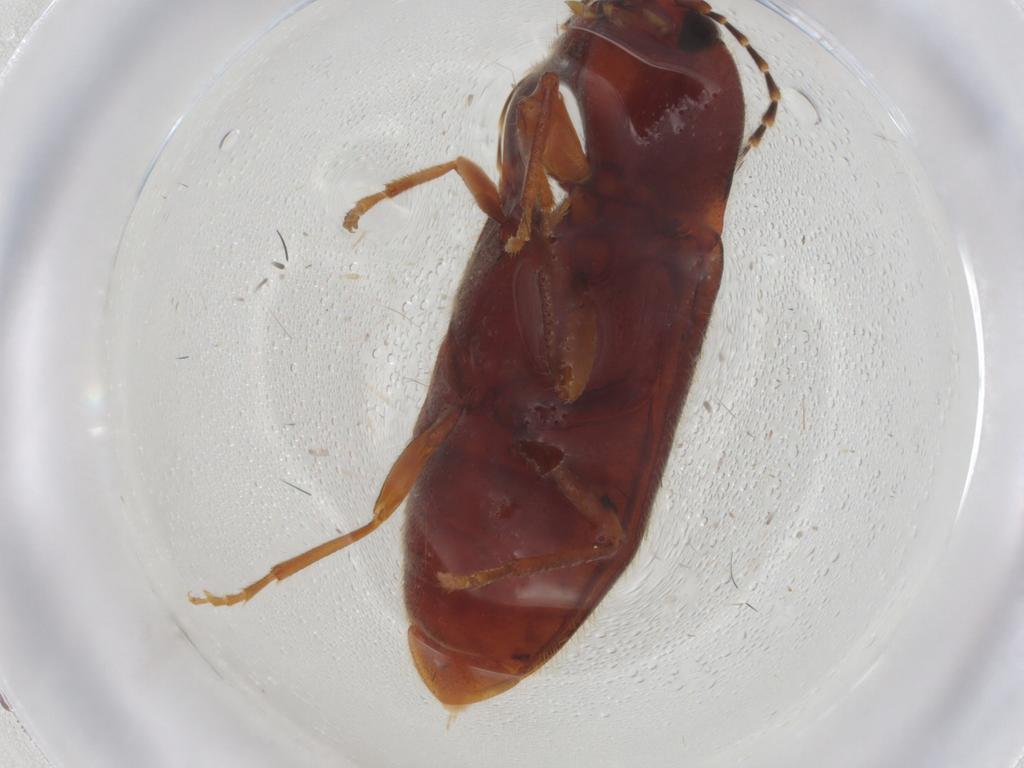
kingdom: Animalia
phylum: Arthropoda
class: Insecta
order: Coleoptera
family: Elateridae
